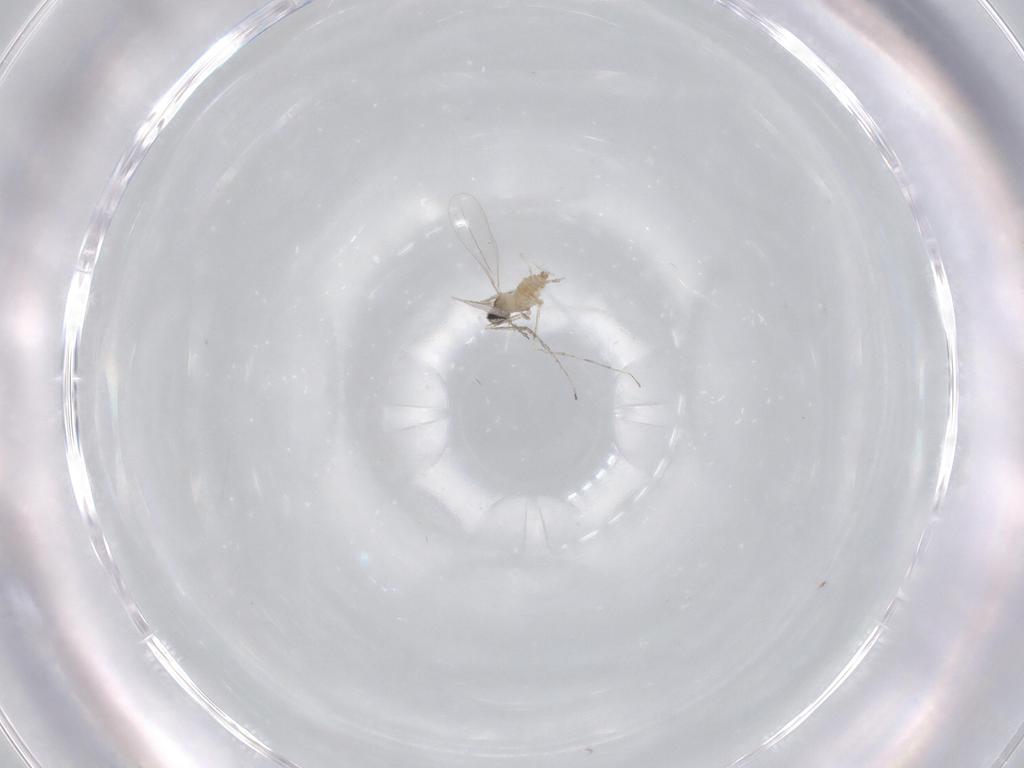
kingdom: Animalia
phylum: Arthropoda
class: Insecta
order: Diptera
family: Cecidomyiidae
